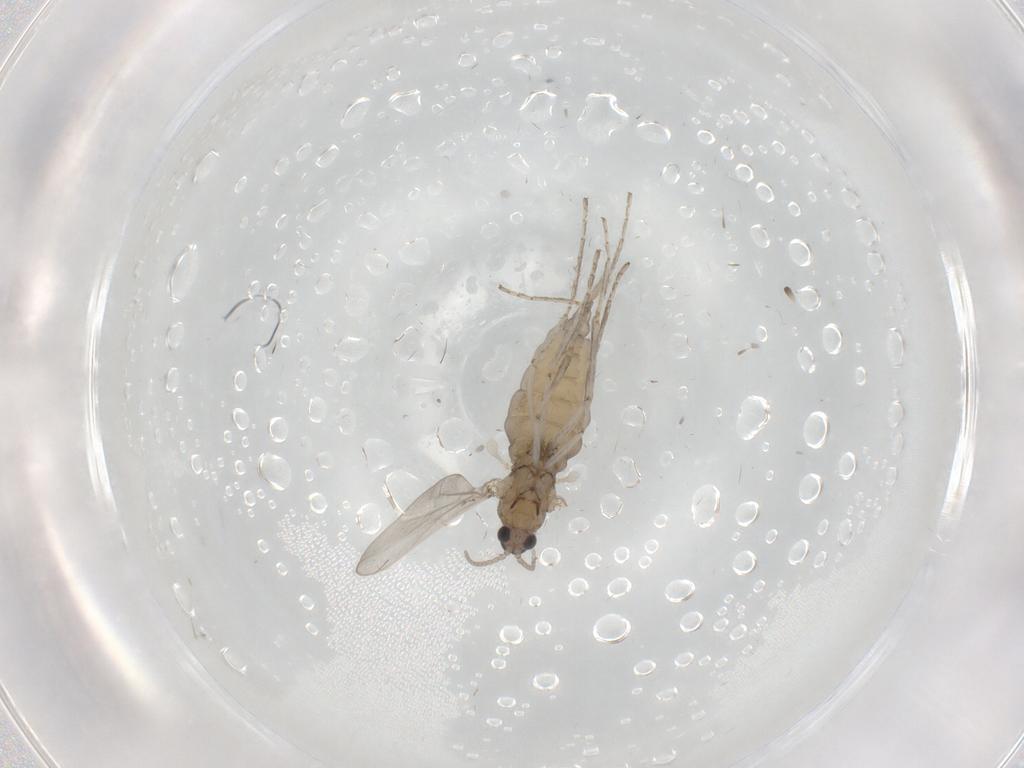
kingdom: Animalia
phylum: Arthropoda
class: Insecta
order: Diptera
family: Cecidomyiidae
